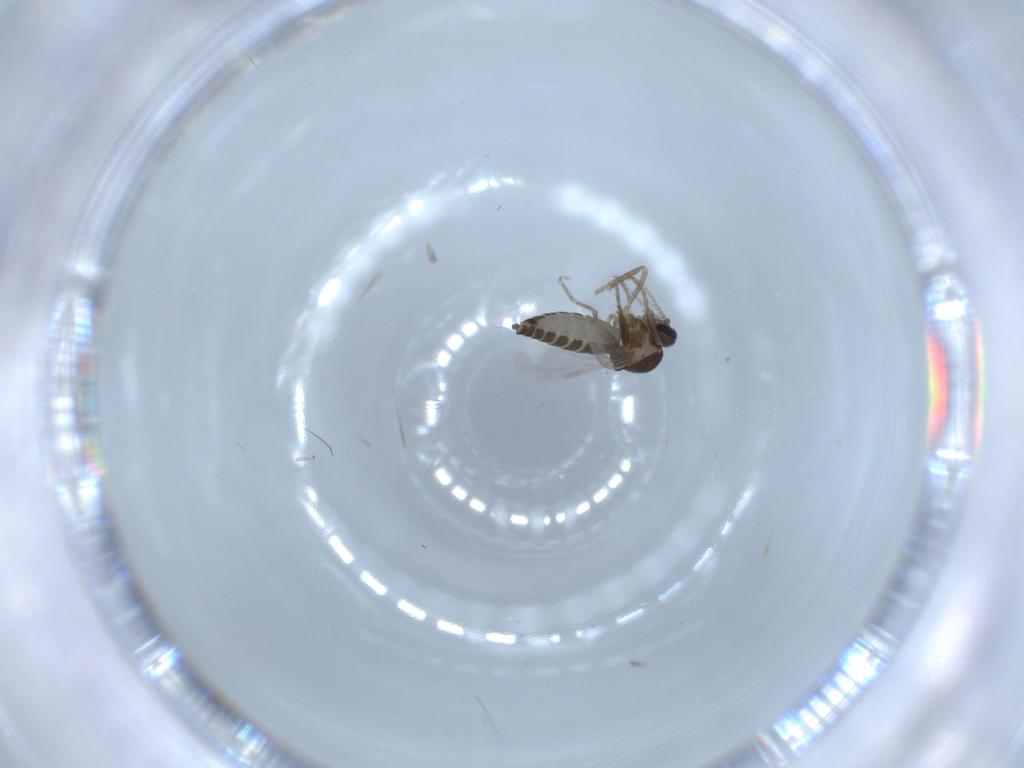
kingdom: Animalia
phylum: Arthropoda
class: Insecta
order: Diptera
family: Ceratopogonidae
